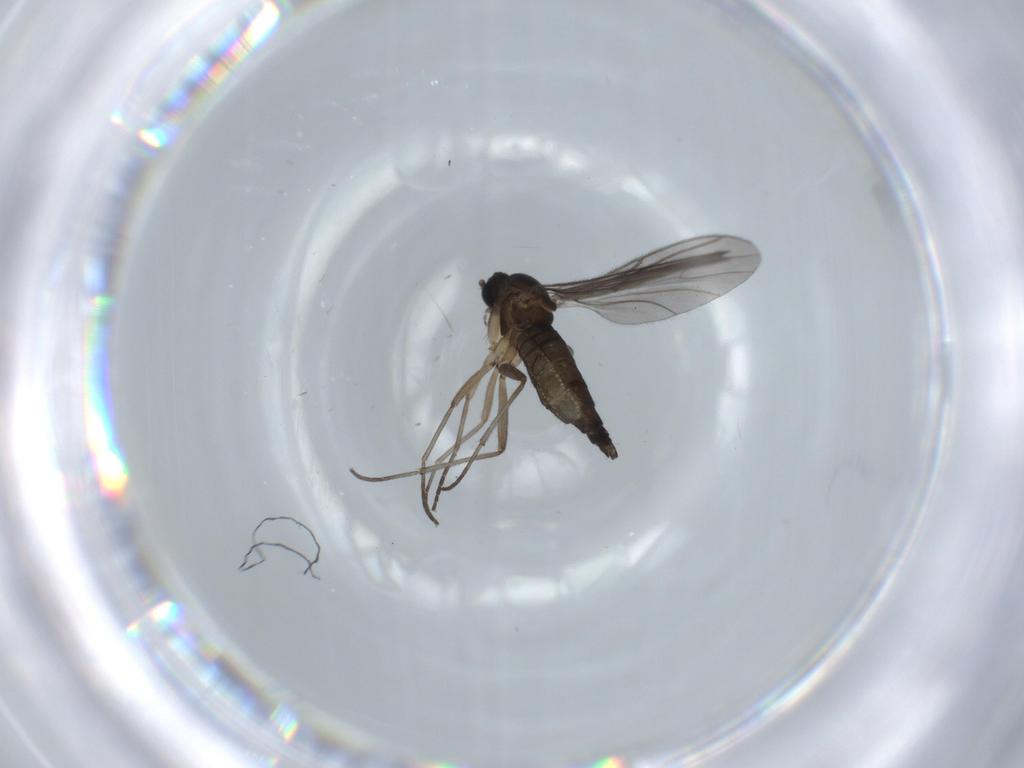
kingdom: Animalia
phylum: Arthropoda
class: Insecta
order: Diptera
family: Sciaridae
